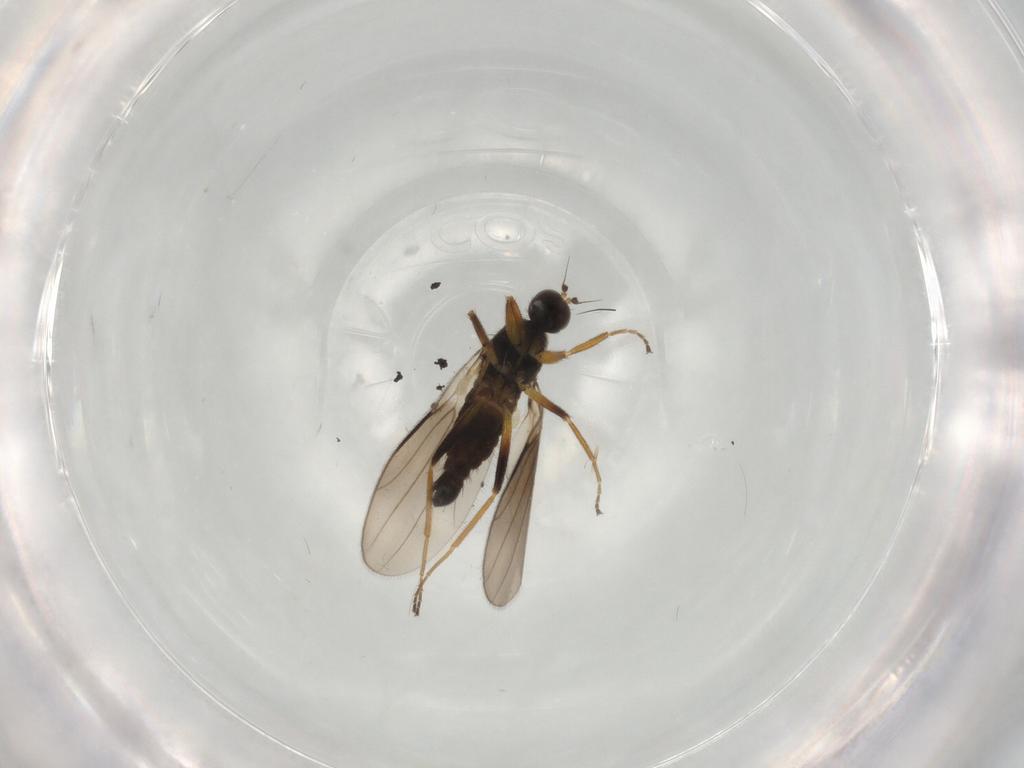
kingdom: Animalia
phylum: Arthropoda
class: Insecta
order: Diptera
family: Hybotidae
